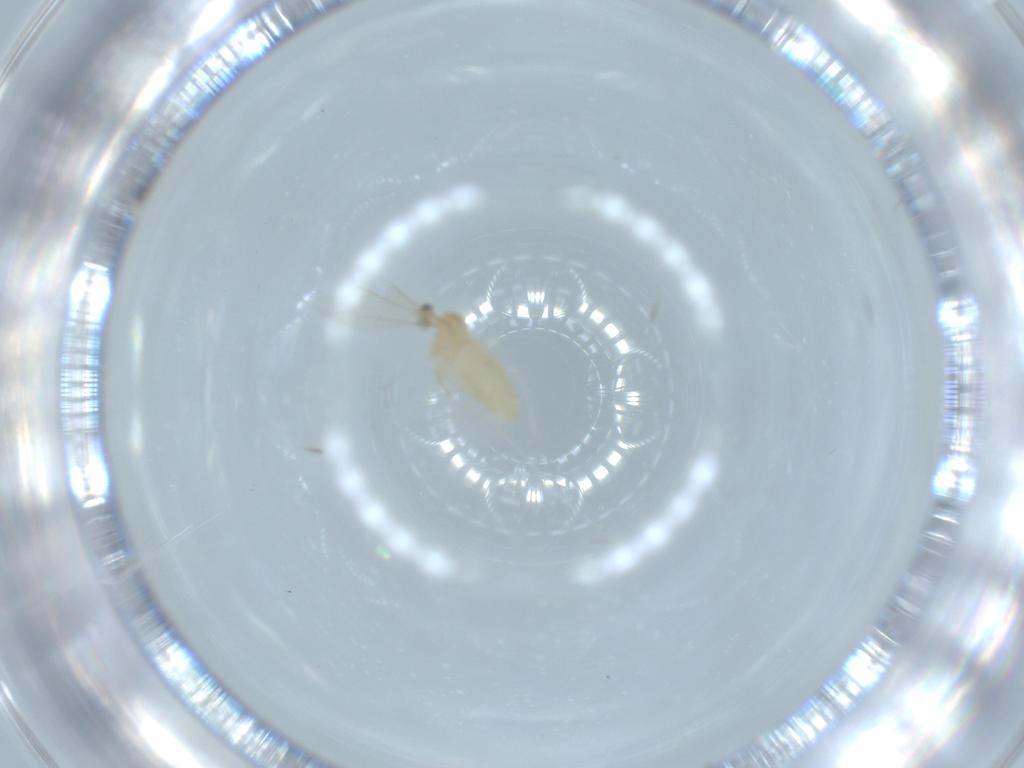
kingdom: Animalia
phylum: Arthropoda
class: Insecta
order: Diptera
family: Cecidomyiidae
